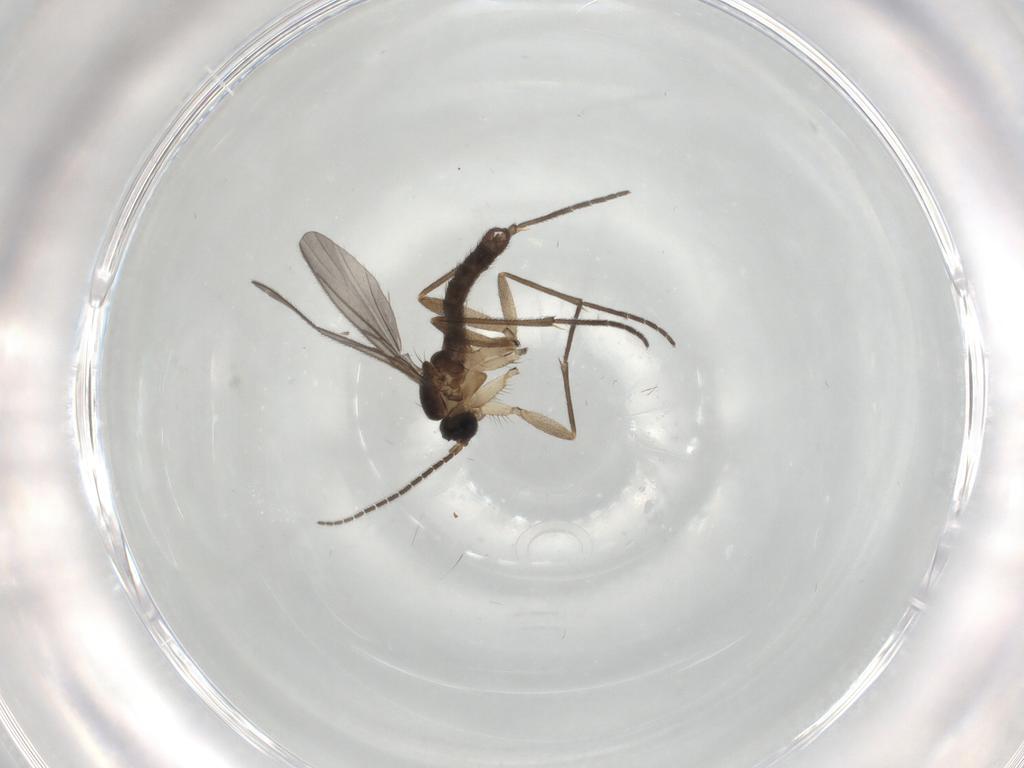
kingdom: Animalia
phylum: Arthropoda
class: Insecta
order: Diptera
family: Sciaridae
